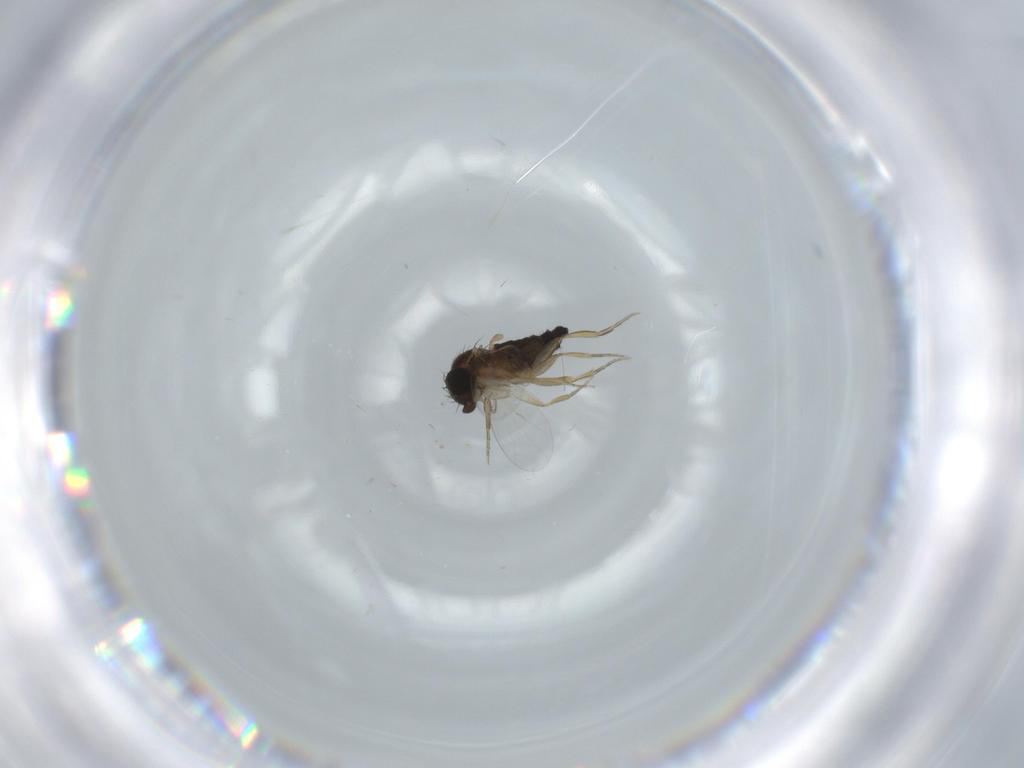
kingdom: Animalia
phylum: Arthropoda
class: Insecta
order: Diptera
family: Phoridae
